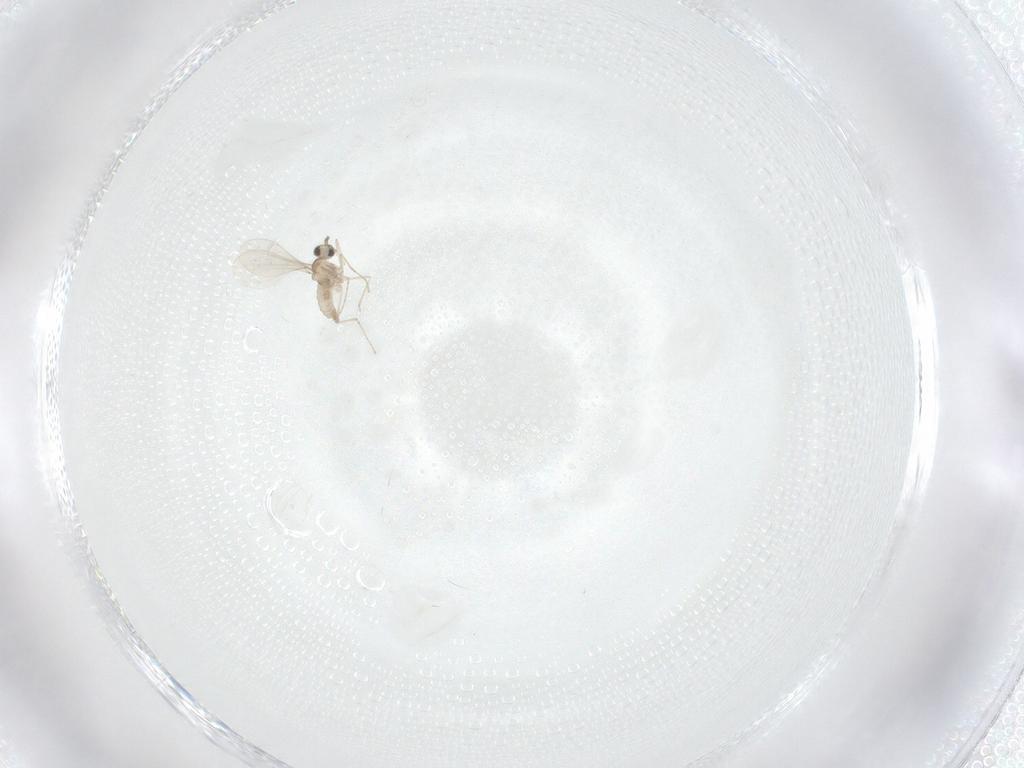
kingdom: Animalia
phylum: Arthropoda
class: Insecta
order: Diptera
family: Cecidomyiidae
